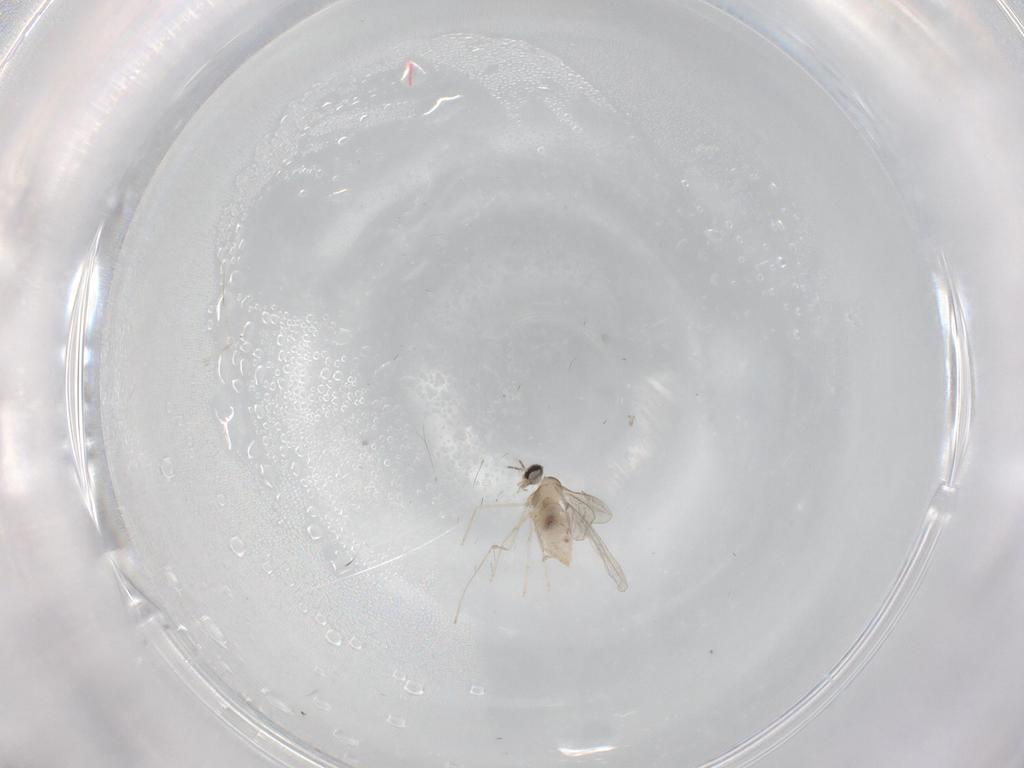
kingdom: Animalia
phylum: Arthropoda
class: Insecta
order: Diptera
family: Cecidomyiidae
